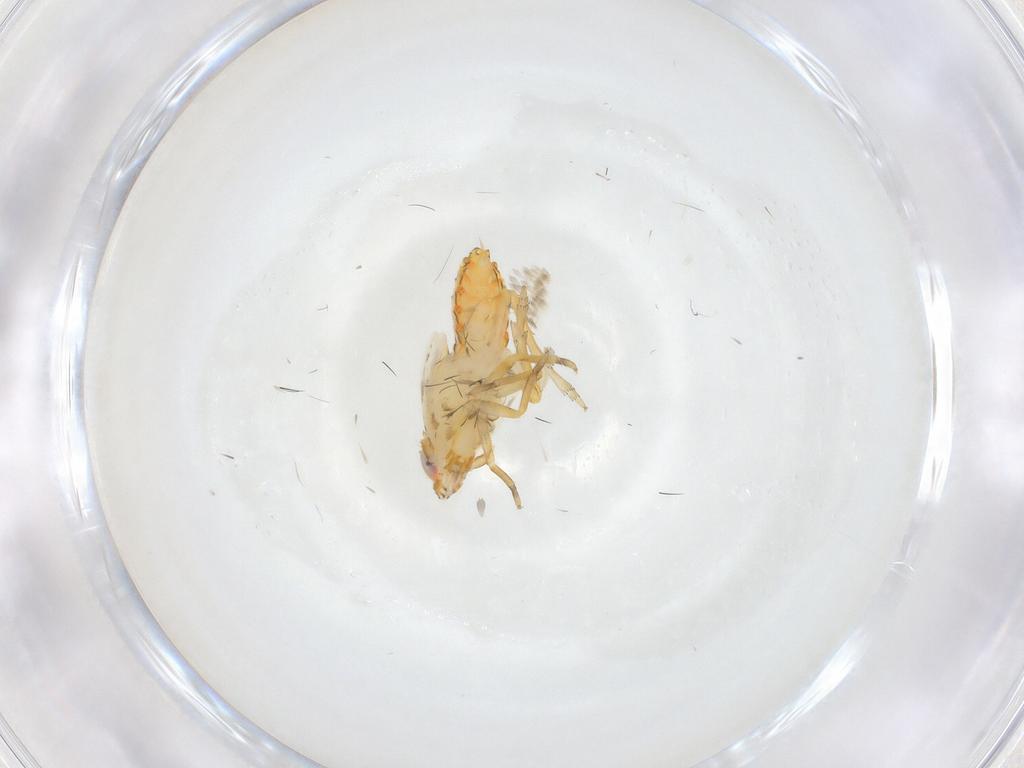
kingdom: Animalia
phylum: Arthropoda
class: Insecta
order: Hemiptera
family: Delphacidae
